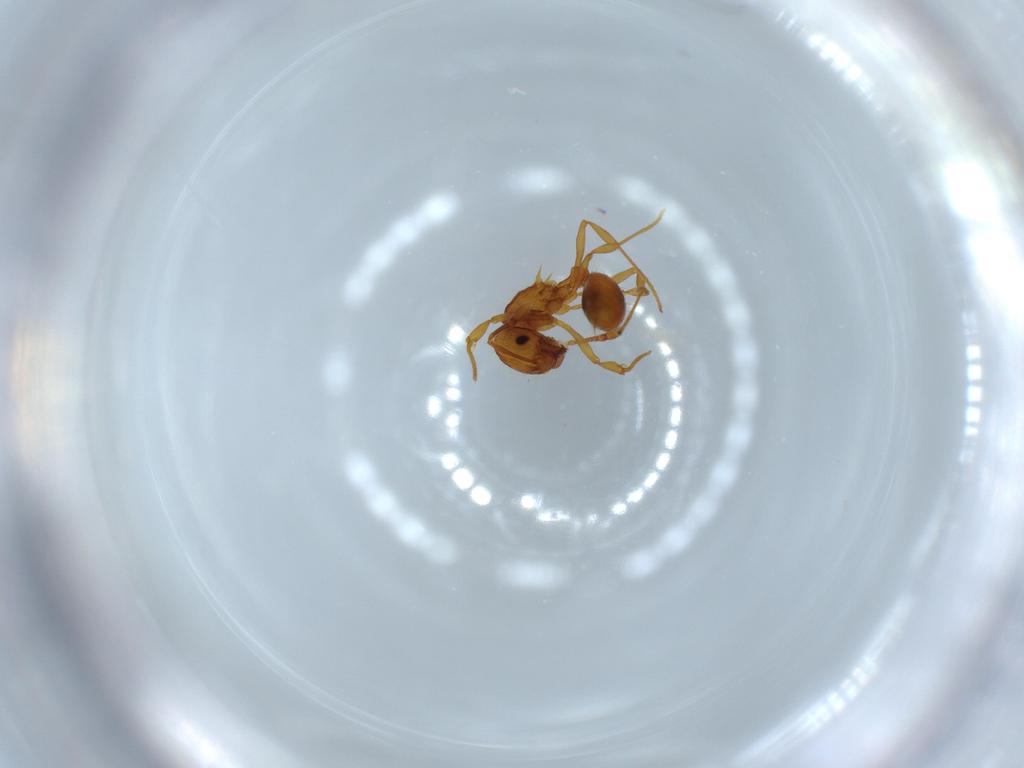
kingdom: Animalia
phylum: Arthropoda
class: Insecta
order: Hymenoptera
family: Formicidae
